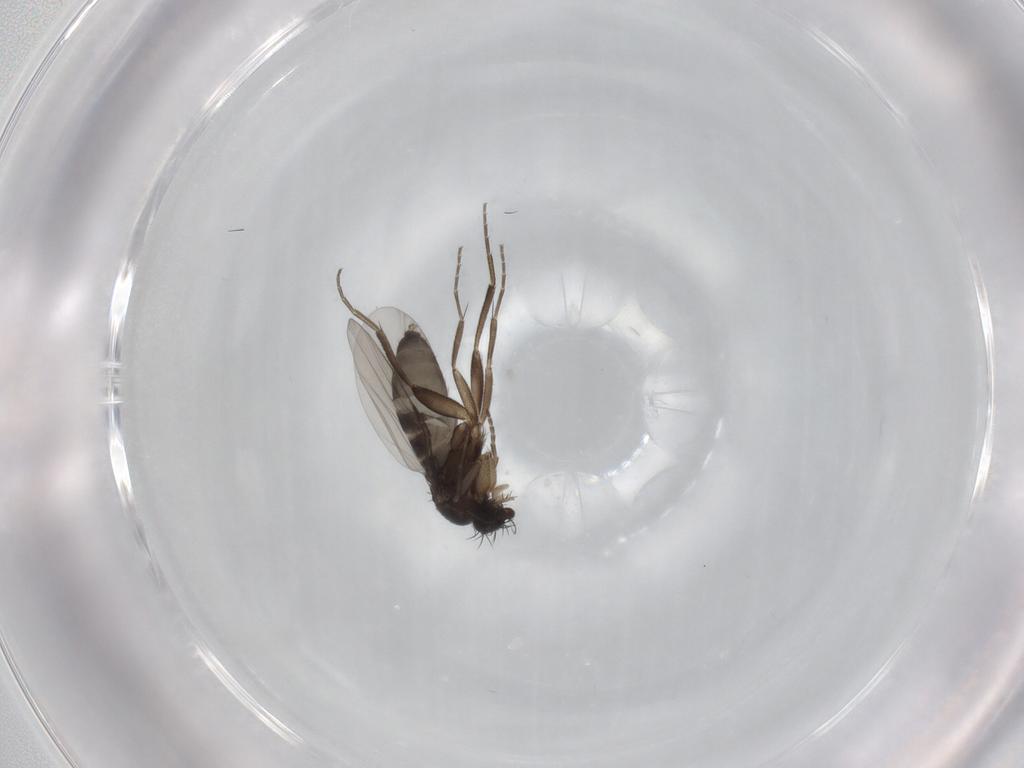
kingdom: Animalia
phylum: Arthropoda
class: Insecta
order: Diptera
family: Phoridae
